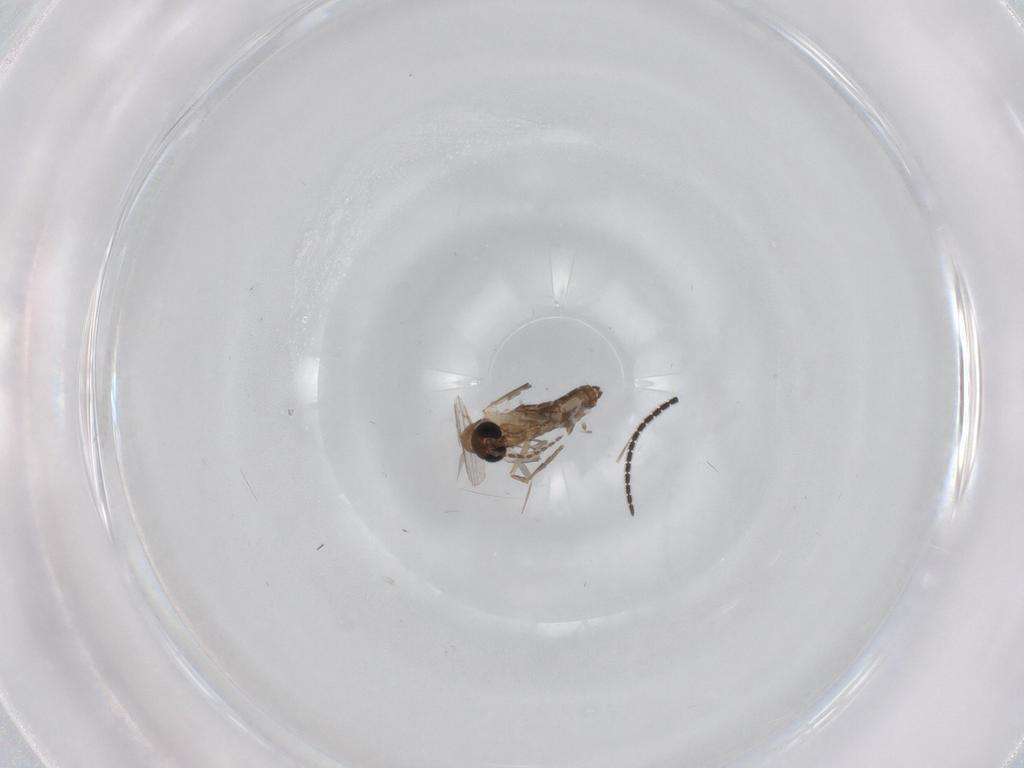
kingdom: Animalia
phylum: Arthropoda
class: Insecta
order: Diptera
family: Sciaridae
